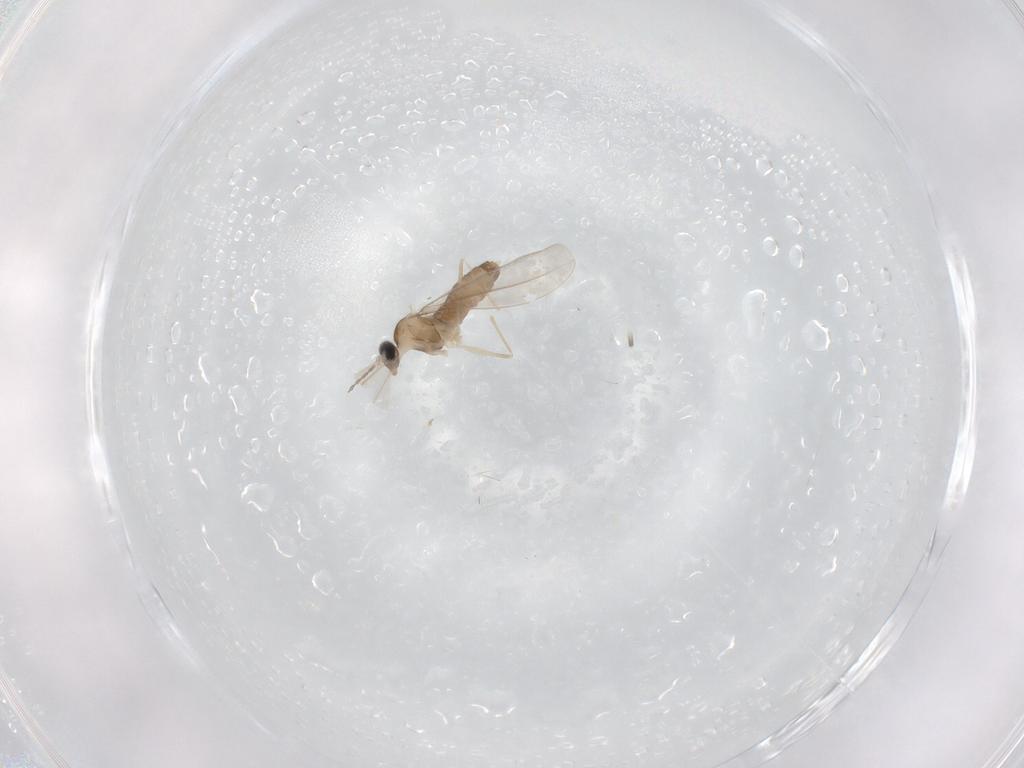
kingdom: Animalia
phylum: Arthropoda
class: Insecta
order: Diptera
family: Cecidomyiidae
